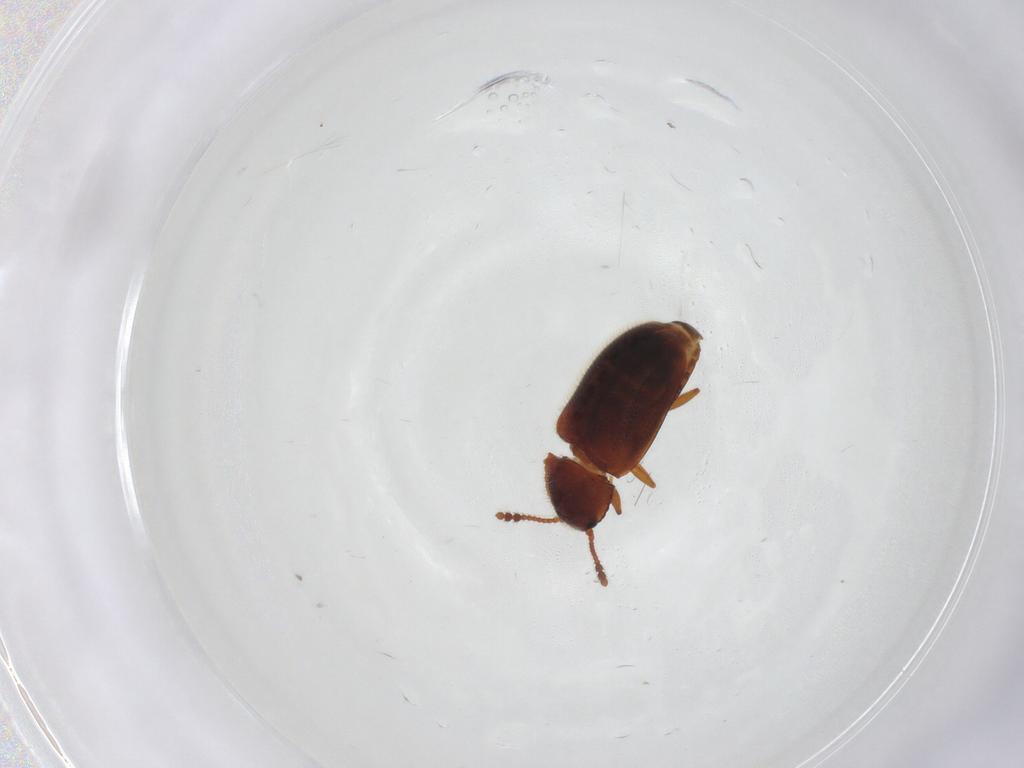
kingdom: Animalia
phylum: Arthropoda
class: Insecta
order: Coleoptera
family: Erotylidae
